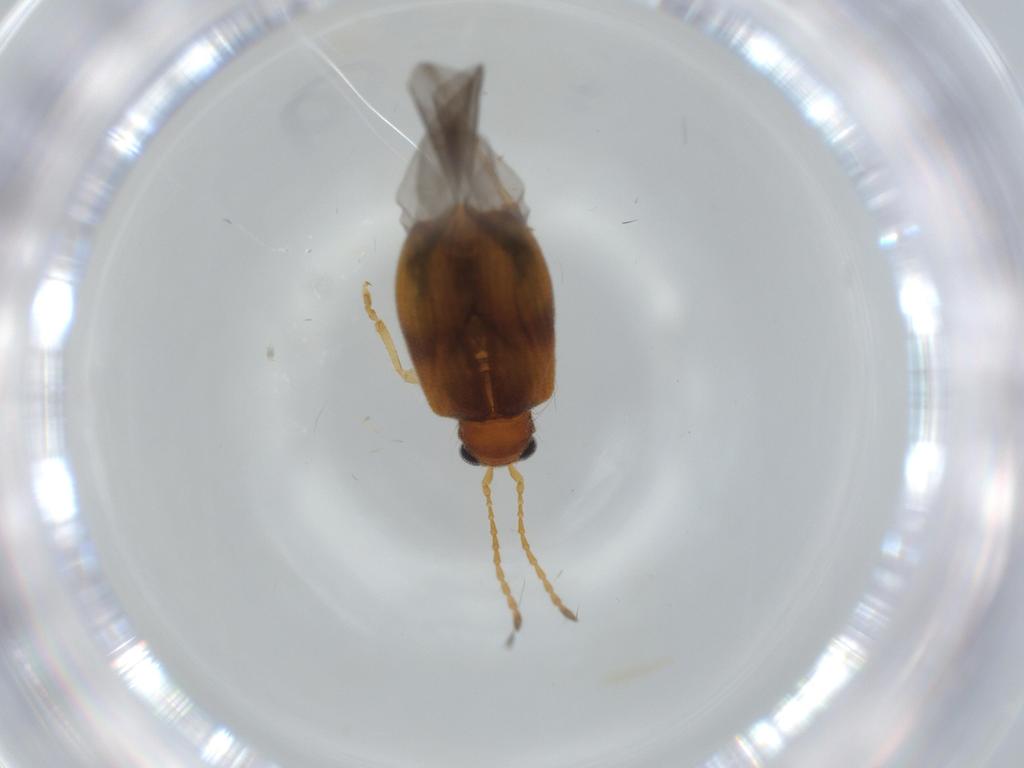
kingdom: Animalia
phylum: Arthropoda
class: Insecta
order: Coleoptera
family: Chrysomelidae
